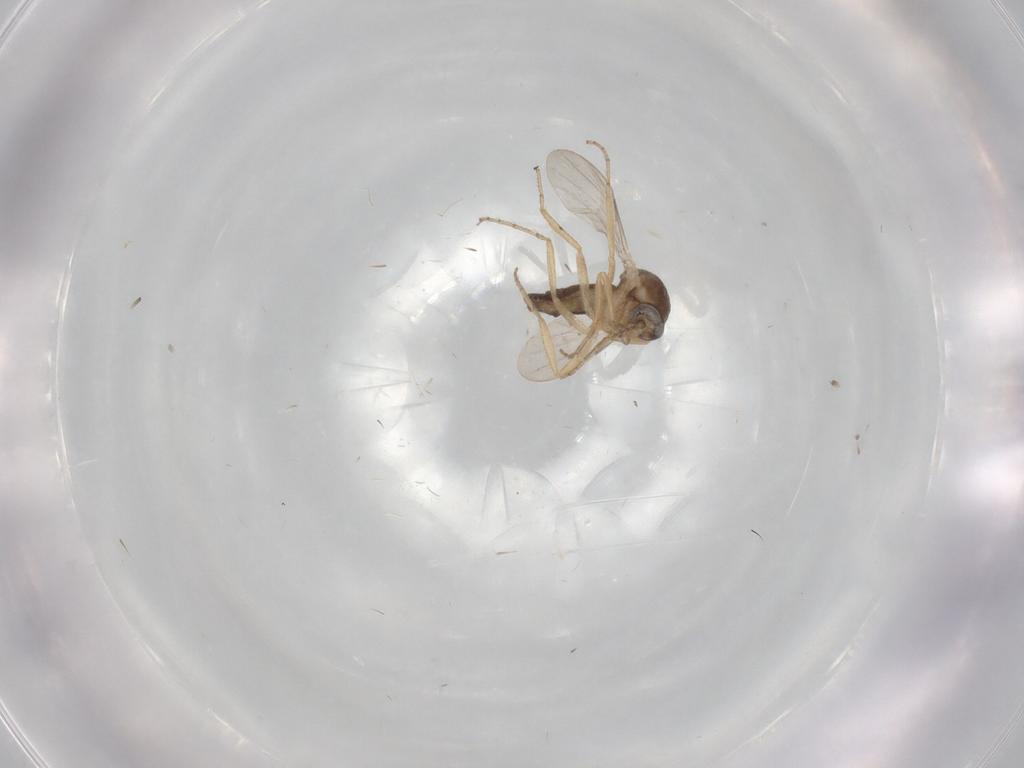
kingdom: Animalia
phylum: Arthropoda
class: Insecta
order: Diptera
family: Ceratopogonidae
